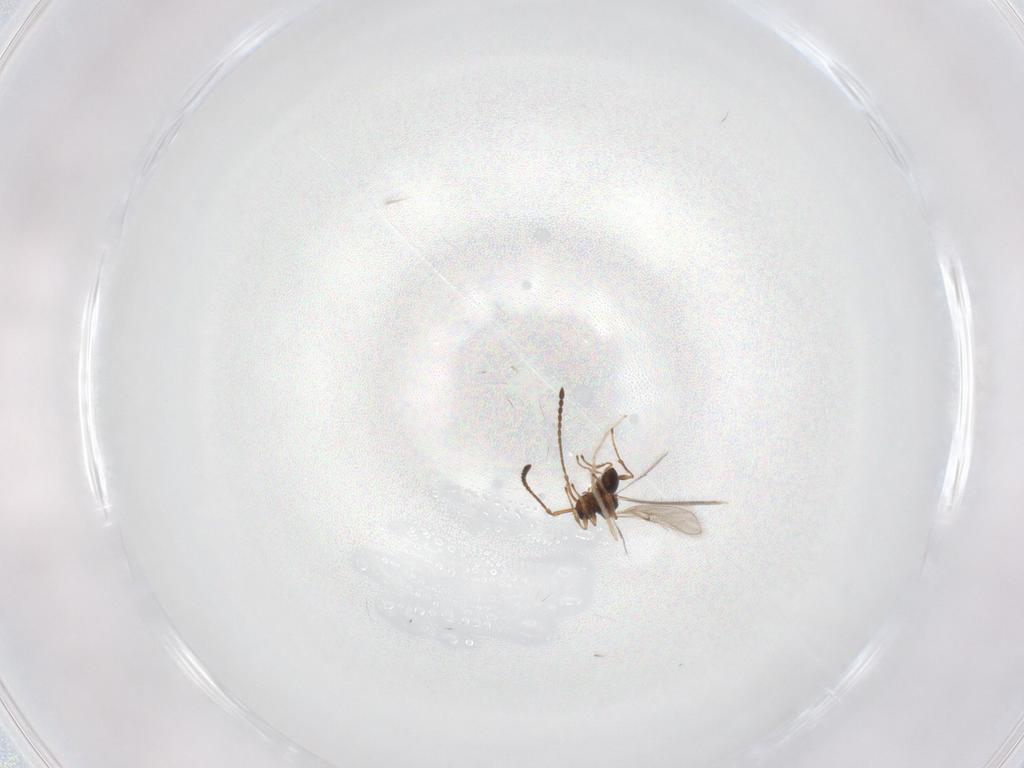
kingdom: Animalia
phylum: Arthropoda
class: Insecta
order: Hymenoptera
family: Diapriidae
